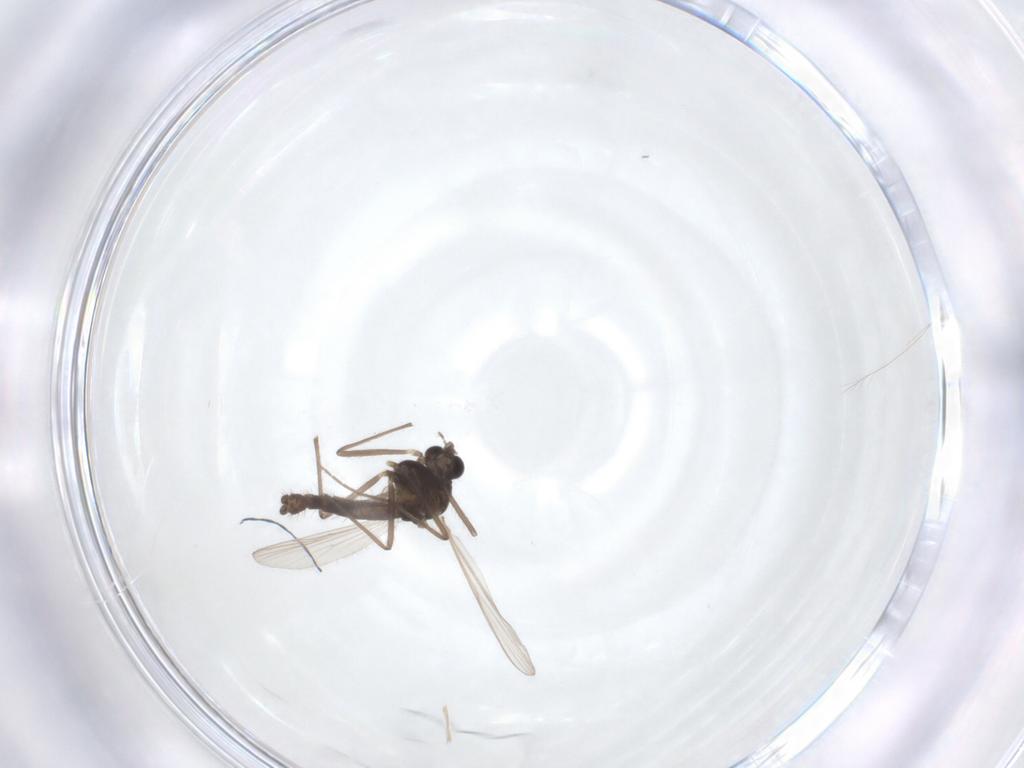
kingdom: Animalia
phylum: Arthropoda
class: Insecta
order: Diptera
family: Chironomidae
